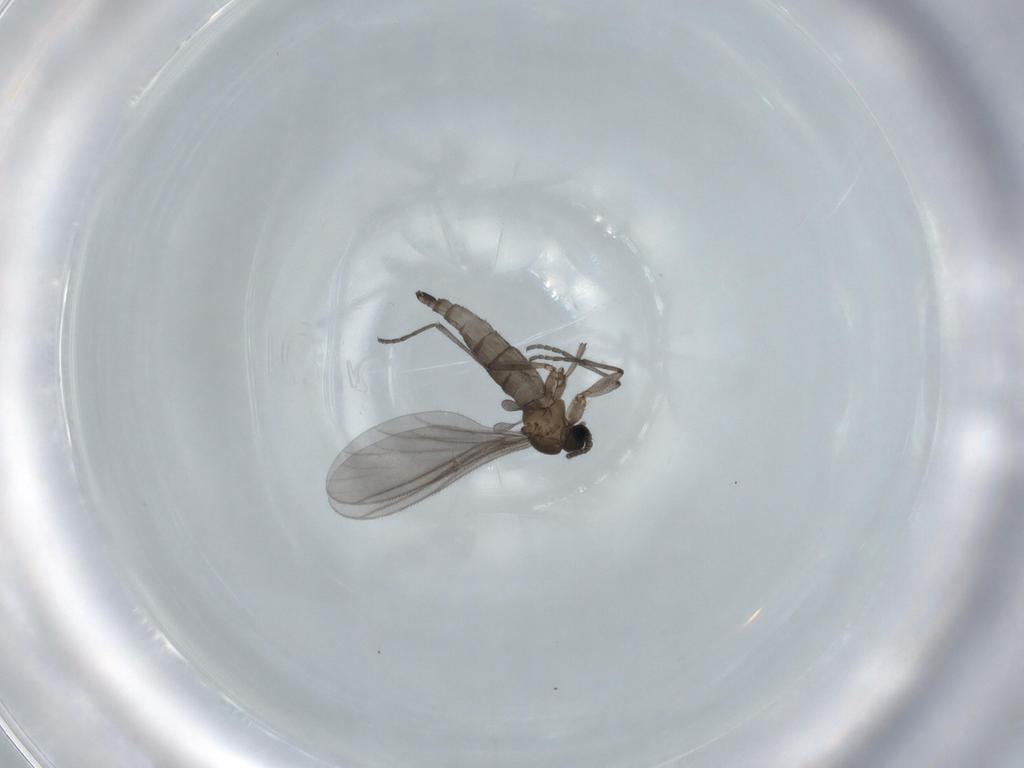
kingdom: Animalia
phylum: Arthropoda
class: Insecta
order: Diptera
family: Sciaridae
